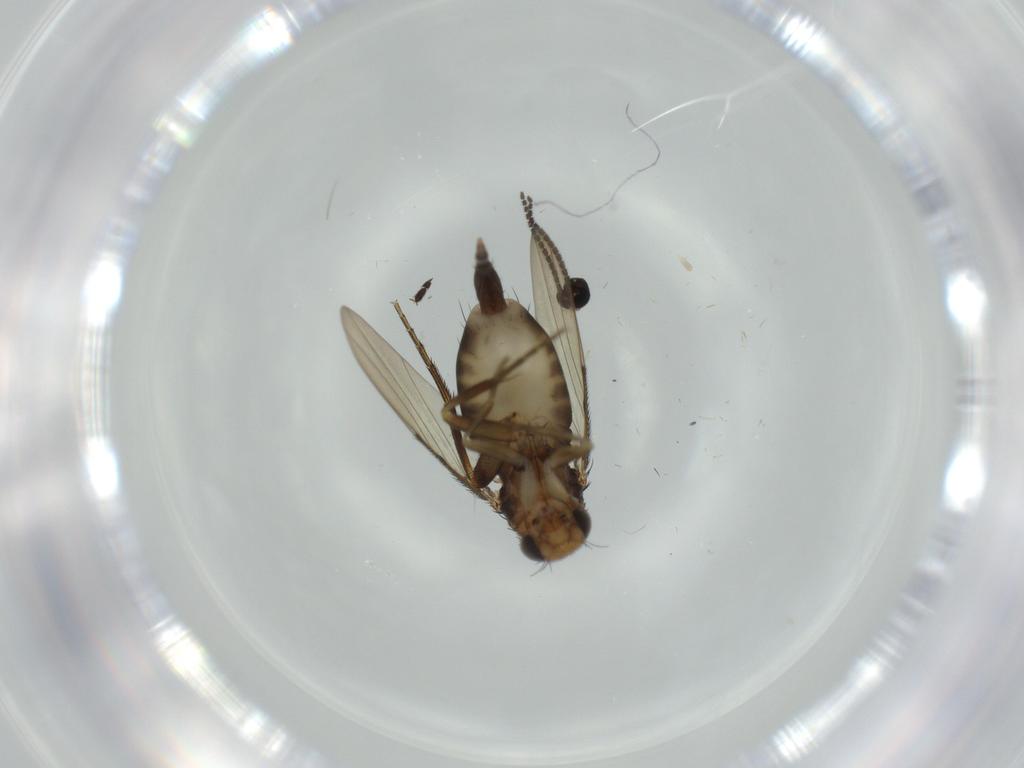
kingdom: Animalia
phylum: Arthropoda
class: Insecta
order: Diptera
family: Phoridae
